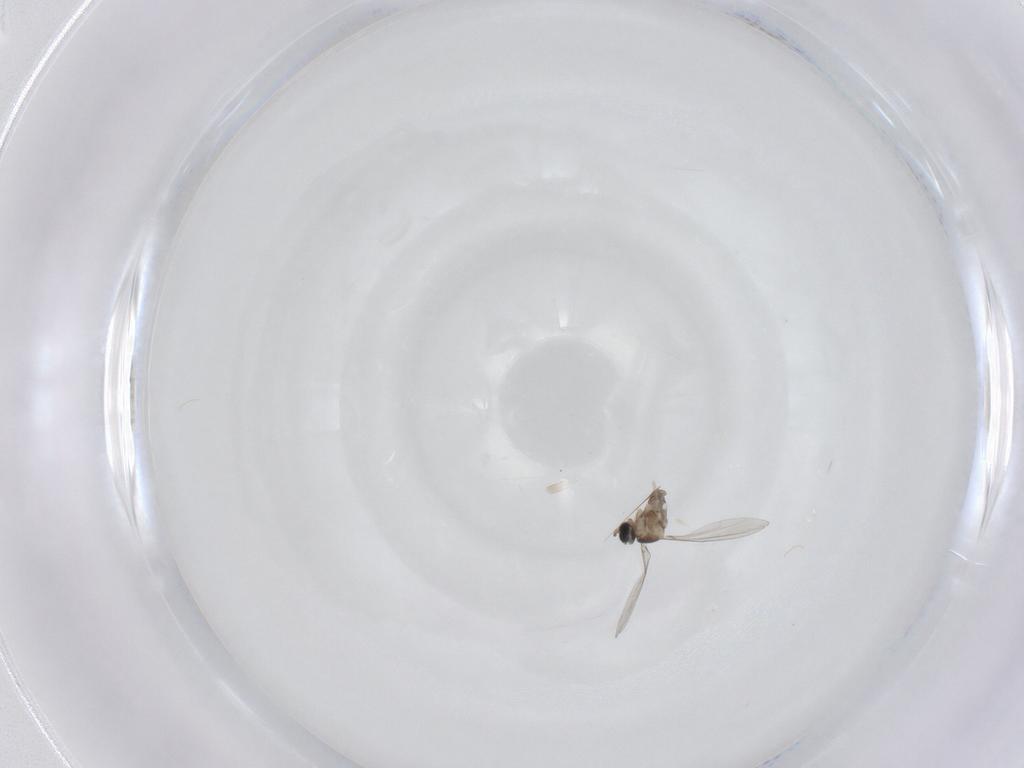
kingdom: Animalia
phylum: Arthropoda
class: Insecta
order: Diptera
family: Cecidomyiidae
